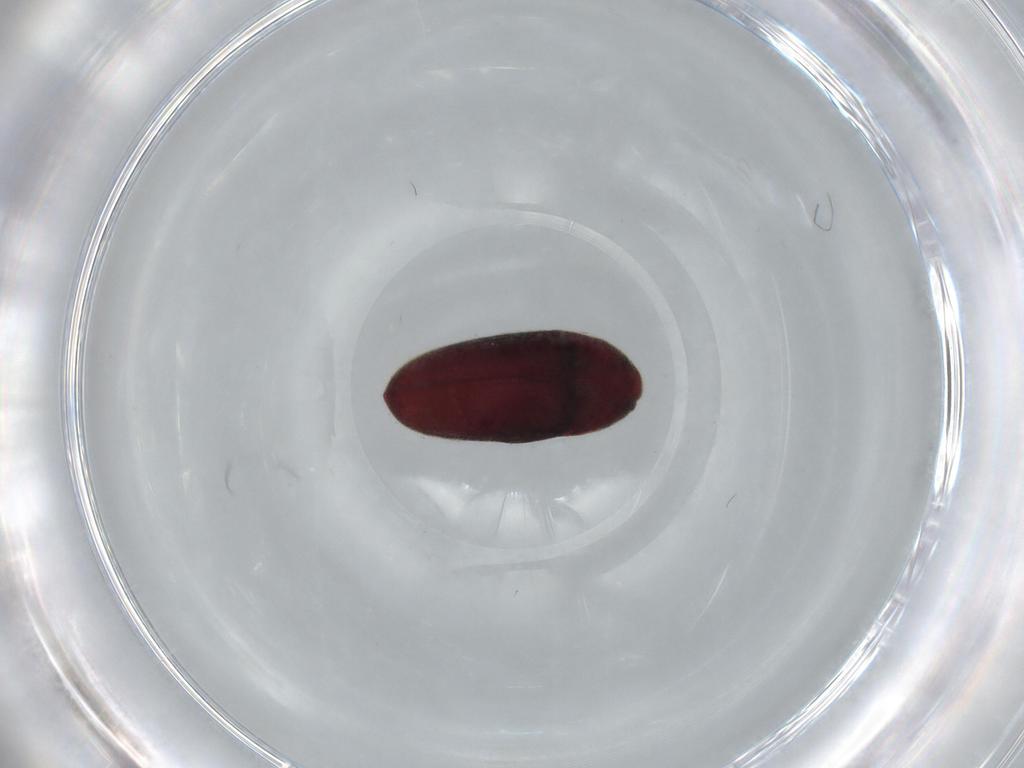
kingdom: Animalia
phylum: Arthropoda
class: Insecta
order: Coleoptera
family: Throscidae
